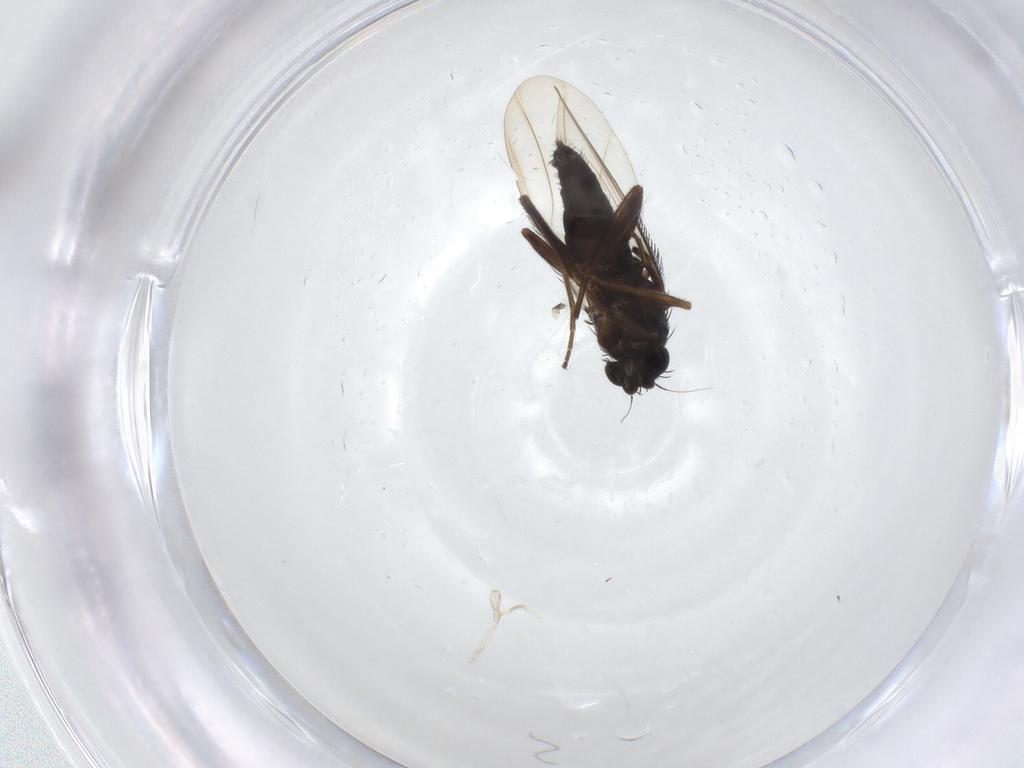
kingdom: Animalia
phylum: Arthropoda
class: Insecta
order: Diptera
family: Phoridae
